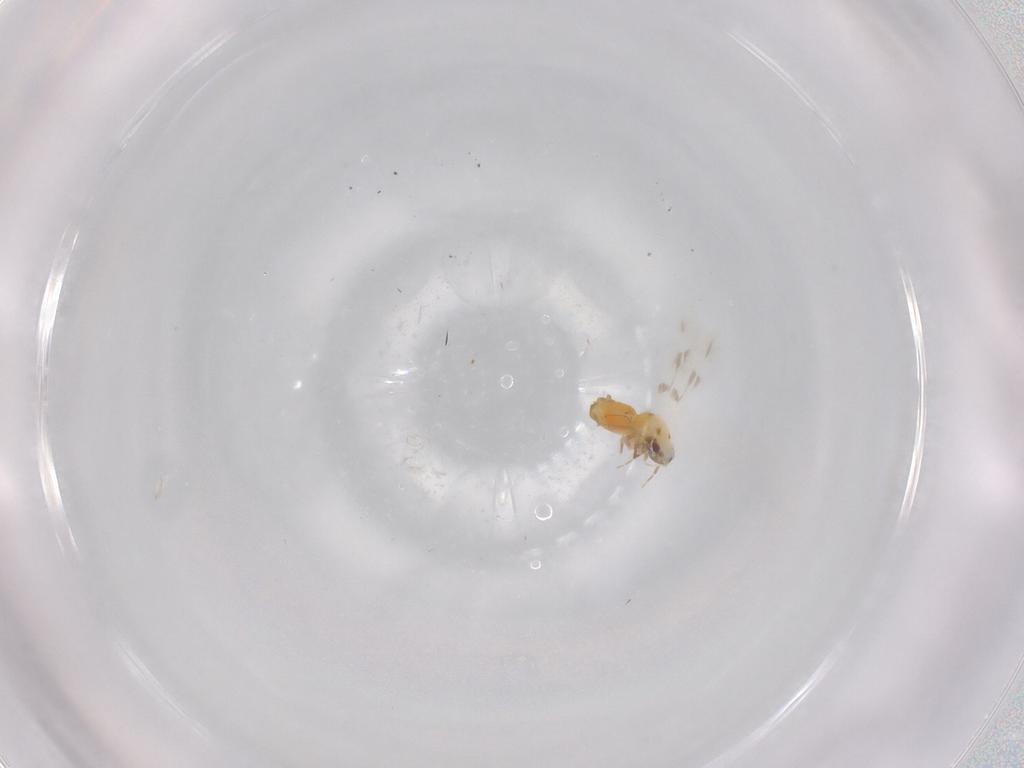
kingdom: Animalia
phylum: Arthropoda
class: Insecta
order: Hemiptera
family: Aleyrodidae
